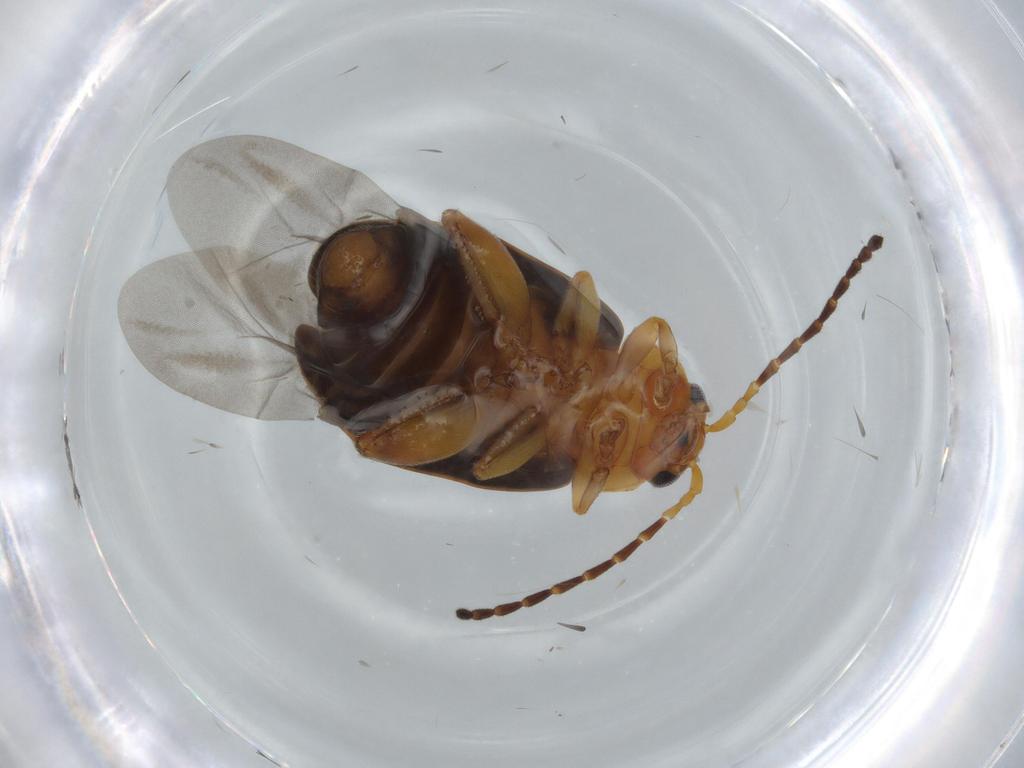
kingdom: Animalia
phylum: Arthropoda
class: Insecta
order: Coleoptera
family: Chrysomelidae
